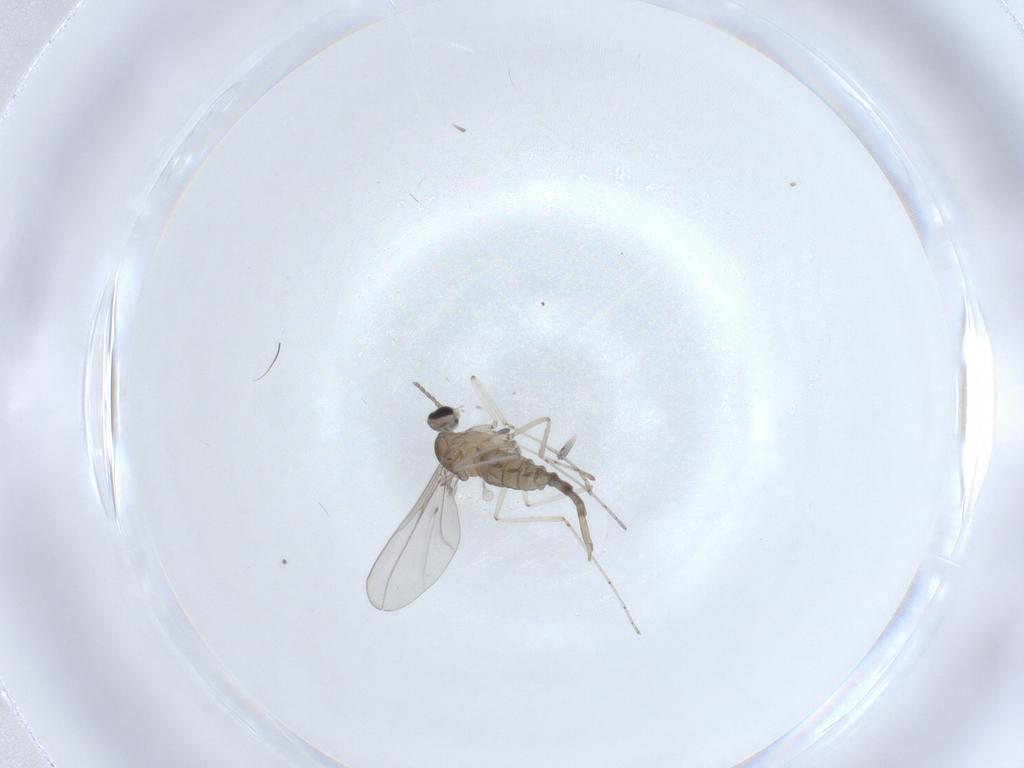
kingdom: Animalia
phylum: Arthropoda
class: Insecta
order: Diptera
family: Cecidomyiidae
